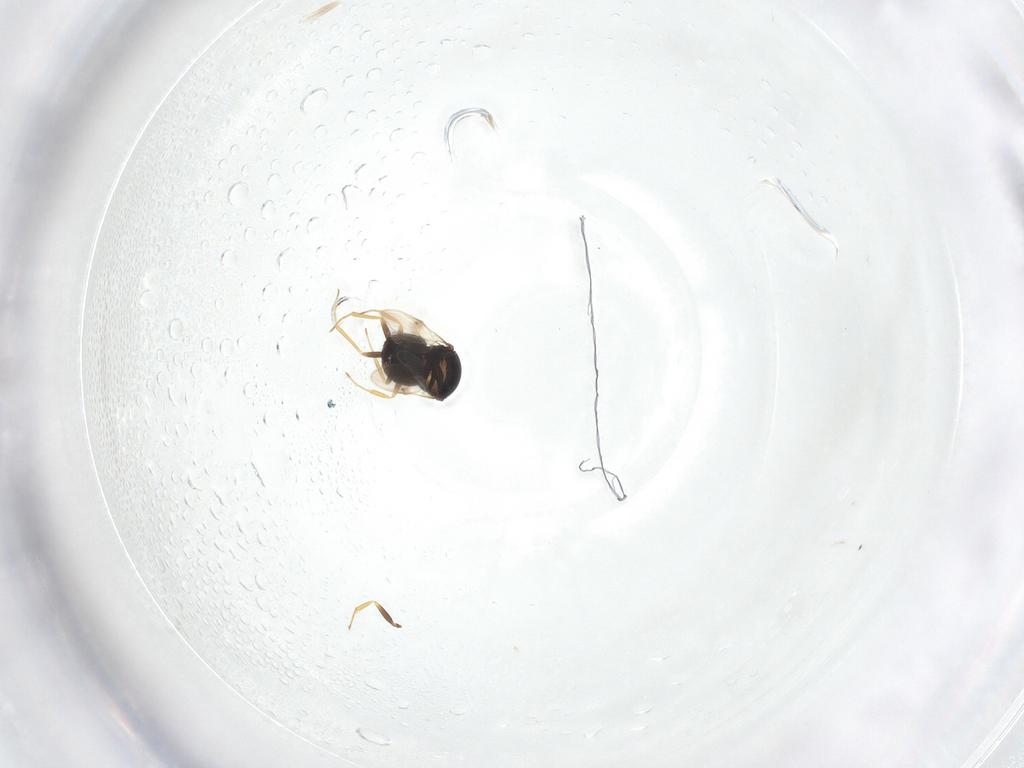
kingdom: Animalia
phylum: Arthropoda
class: Insecta
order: Hymenoptera
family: Scelionidae
